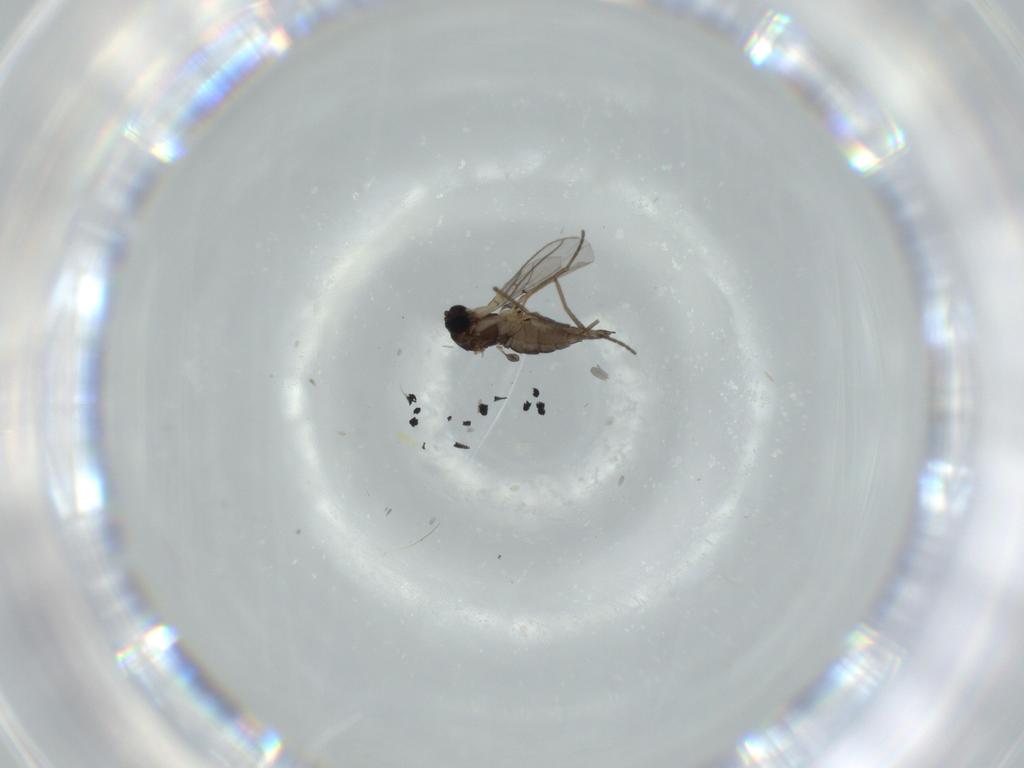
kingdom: Animalia
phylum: Arthropoda
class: Insecta
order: Diptera
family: Sciaridae
